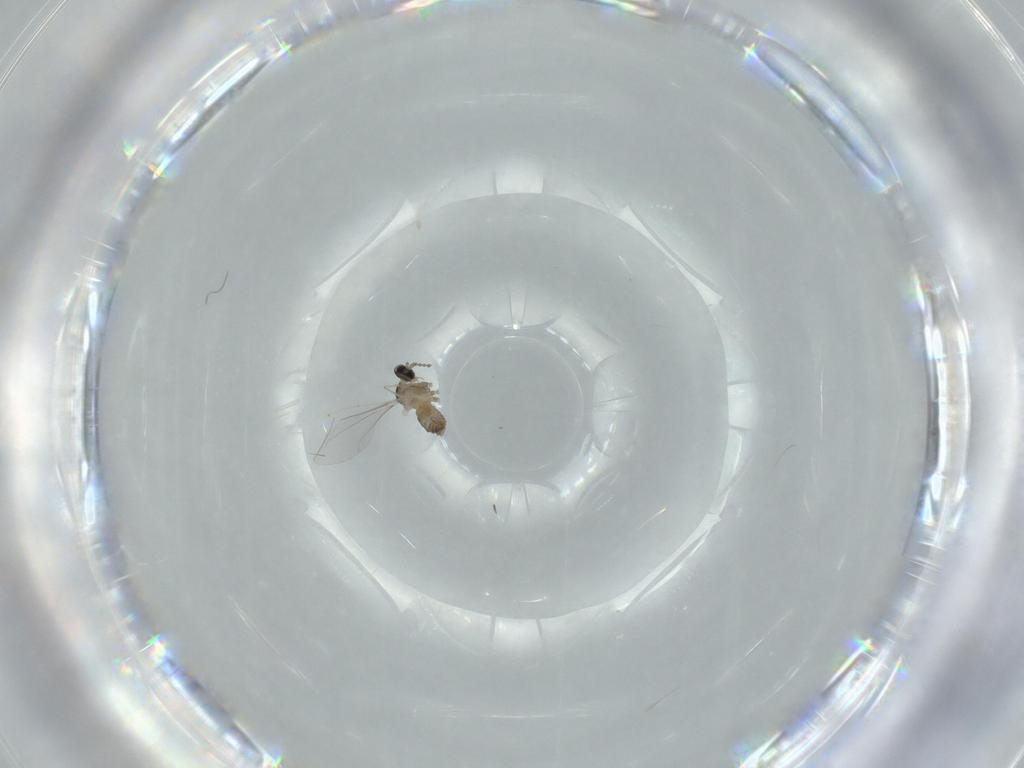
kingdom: Animalia
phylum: Arthropoda
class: Insecta
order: Diptera
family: Cecidomyiidae
